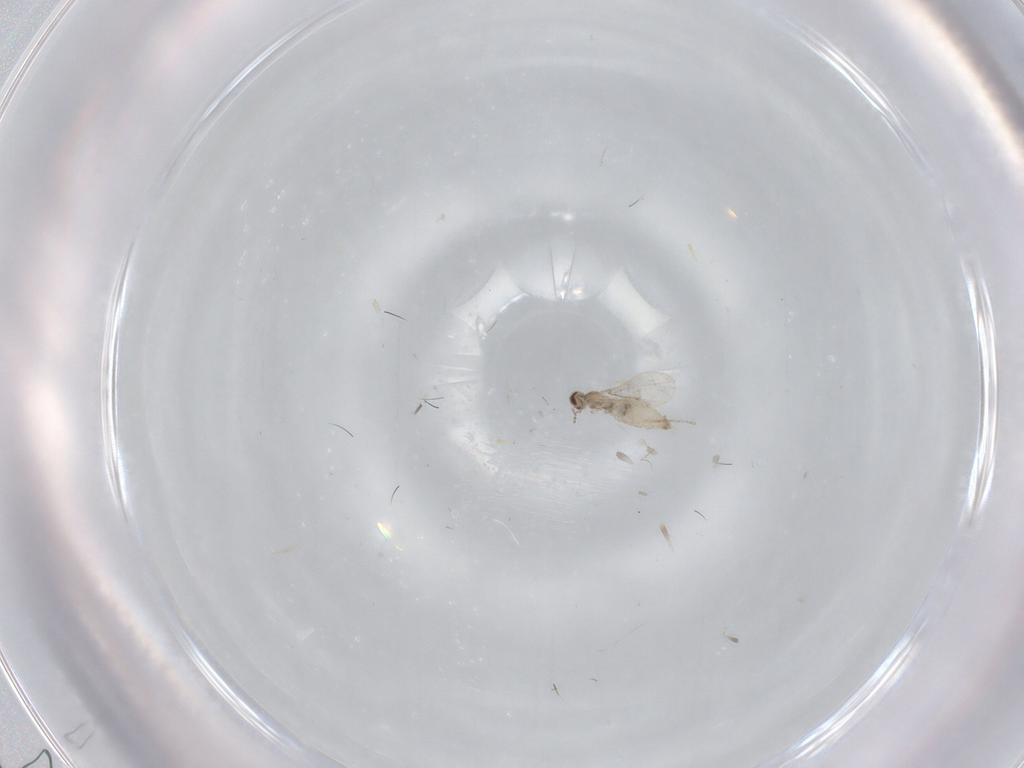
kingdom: Animalia
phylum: Arthropoda
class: Insecta
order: Diptera
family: Cecidomyiidae
